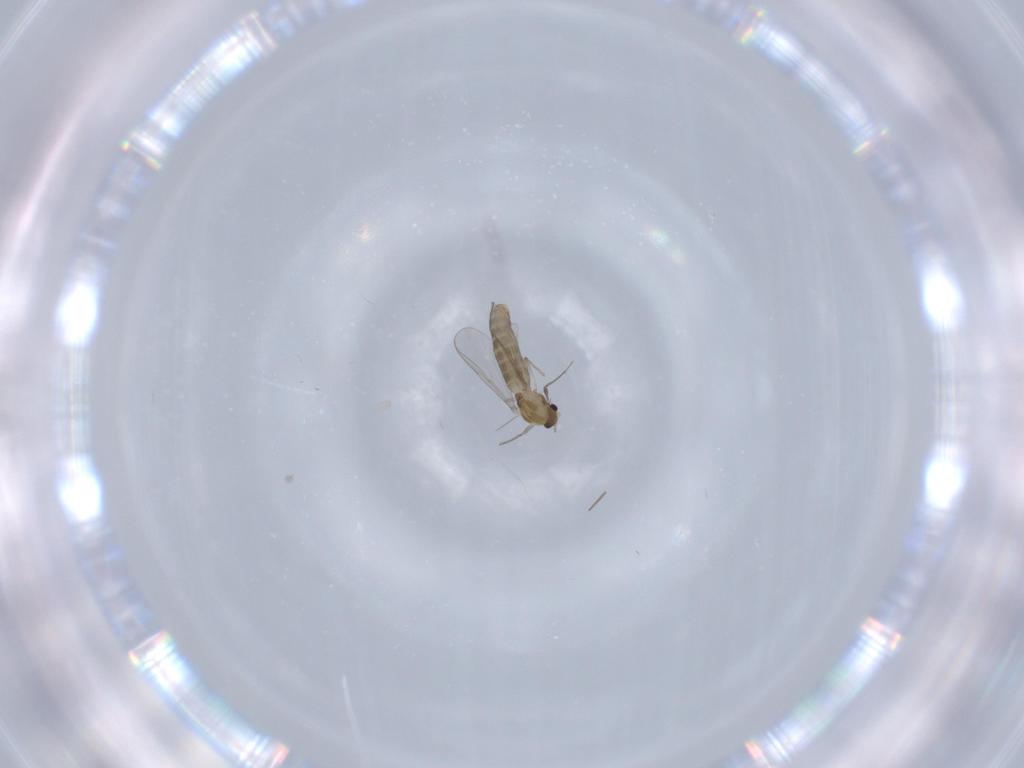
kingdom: Animalia
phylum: Arthropoda
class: Insecta
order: Diptera
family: Chironomidae
